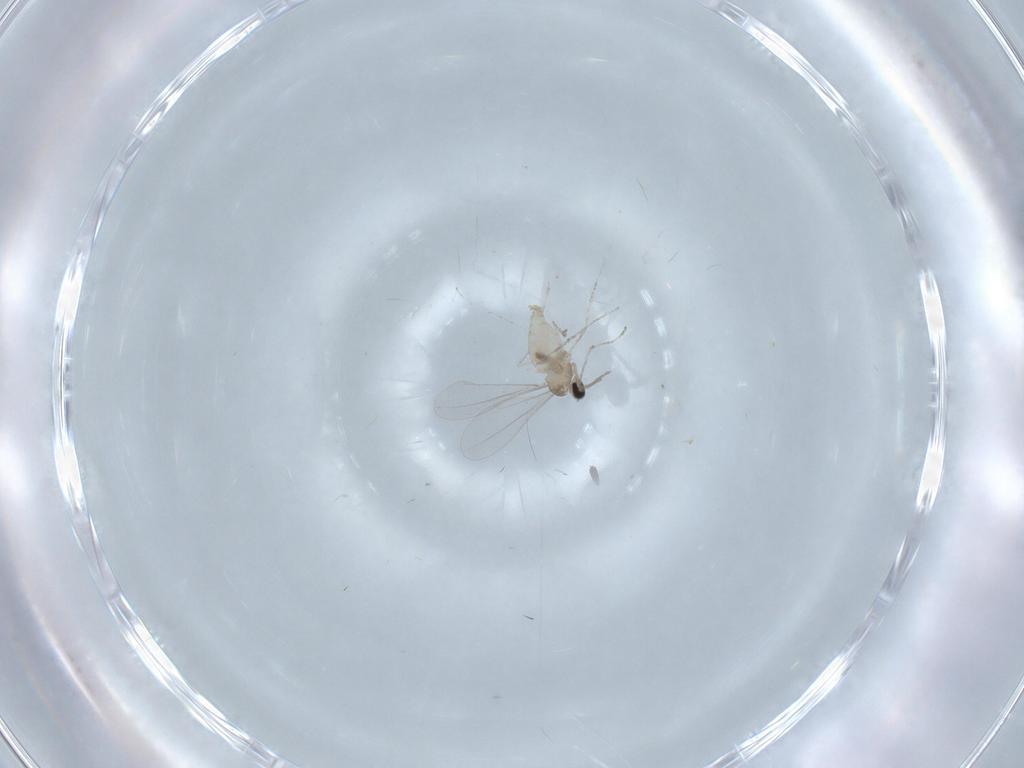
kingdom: Animalia
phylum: Arthropoda
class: Insecta
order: Diptera
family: Cecidomyiidae
